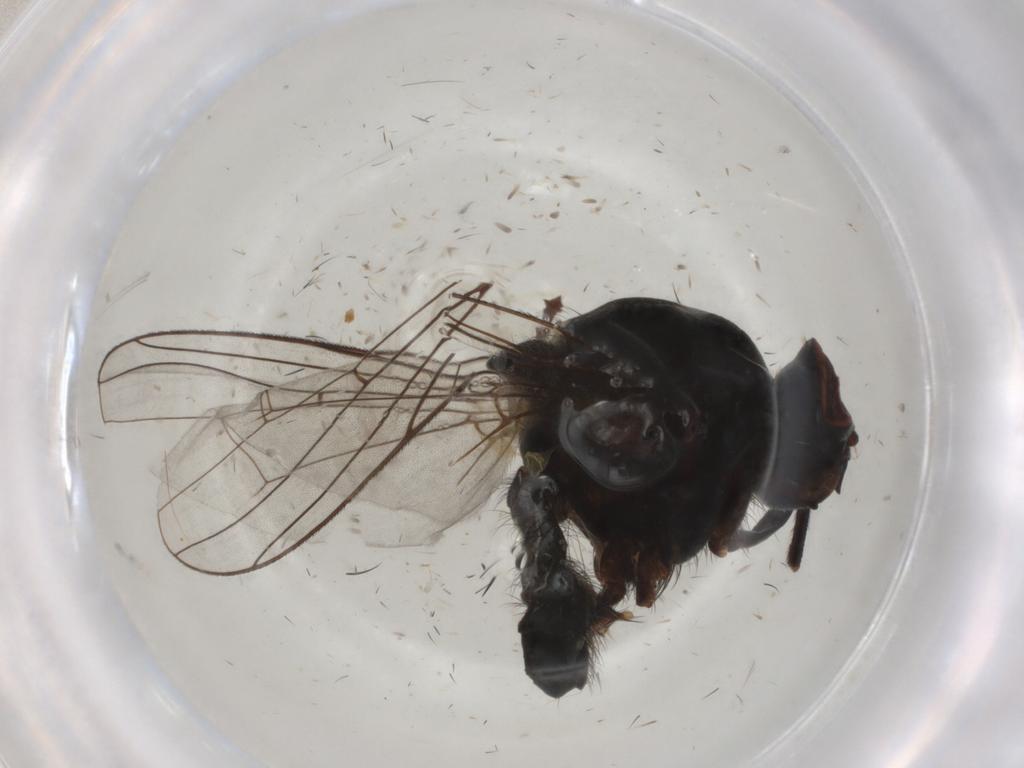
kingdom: Animalia
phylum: Arthropoda
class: Insecta
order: Diptera
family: Anthomyiidae
